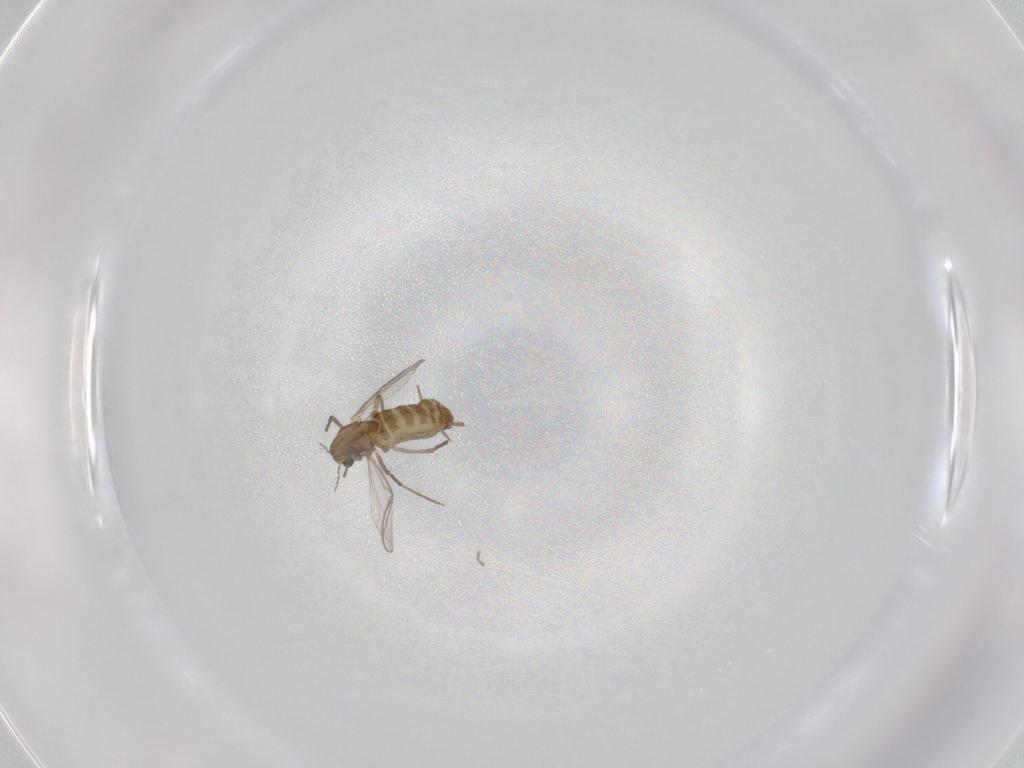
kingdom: Animalia
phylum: Arthropoda
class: Insecta
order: Diptera
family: Chironomidae
